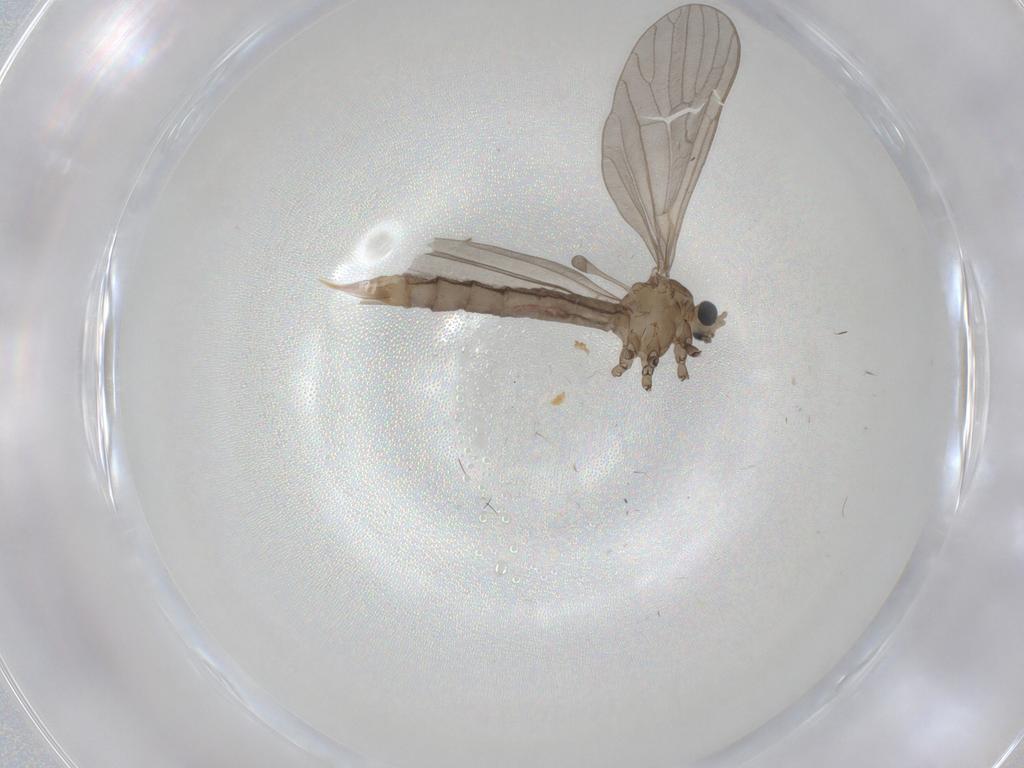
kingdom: Animalia
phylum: Arthropoda
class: Insecta
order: Diptera
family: Limoniidae
